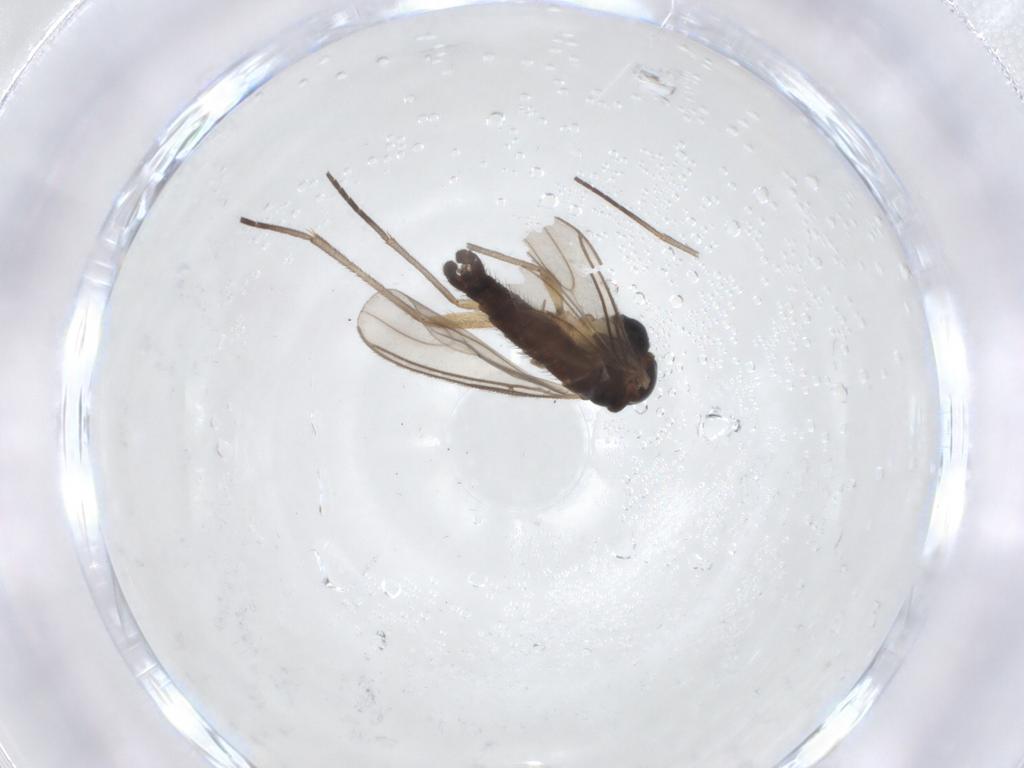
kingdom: Animalia
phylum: Arthropoda
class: Insecta
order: Diptera
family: Sciaridae
